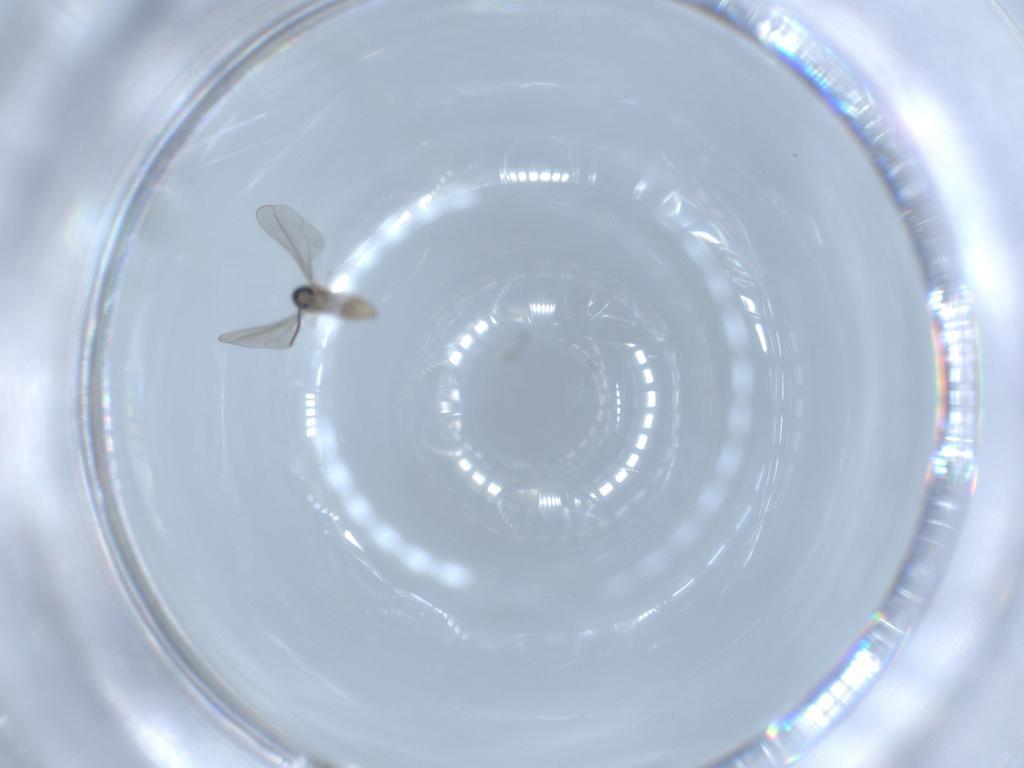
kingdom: Animalia
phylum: Arthropoda
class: Insecta
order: Diptera
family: Cecidomyiidae
